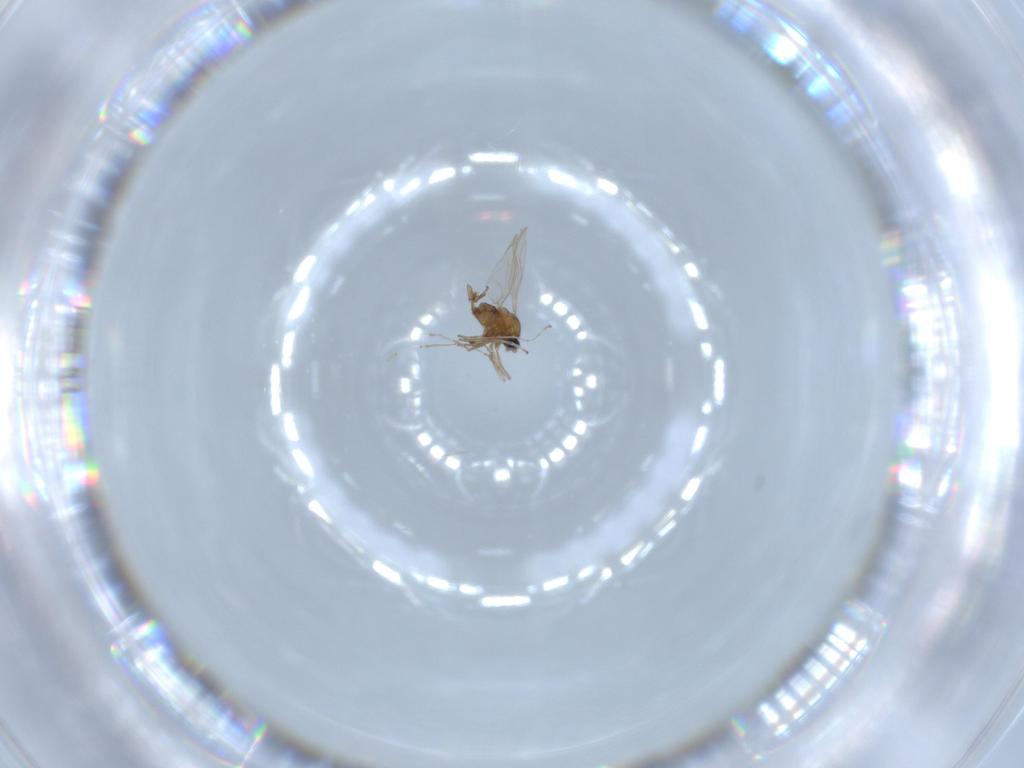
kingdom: Animalia
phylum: Arthropoda
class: Insecta
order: Diptera
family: Cecidomyiidae
